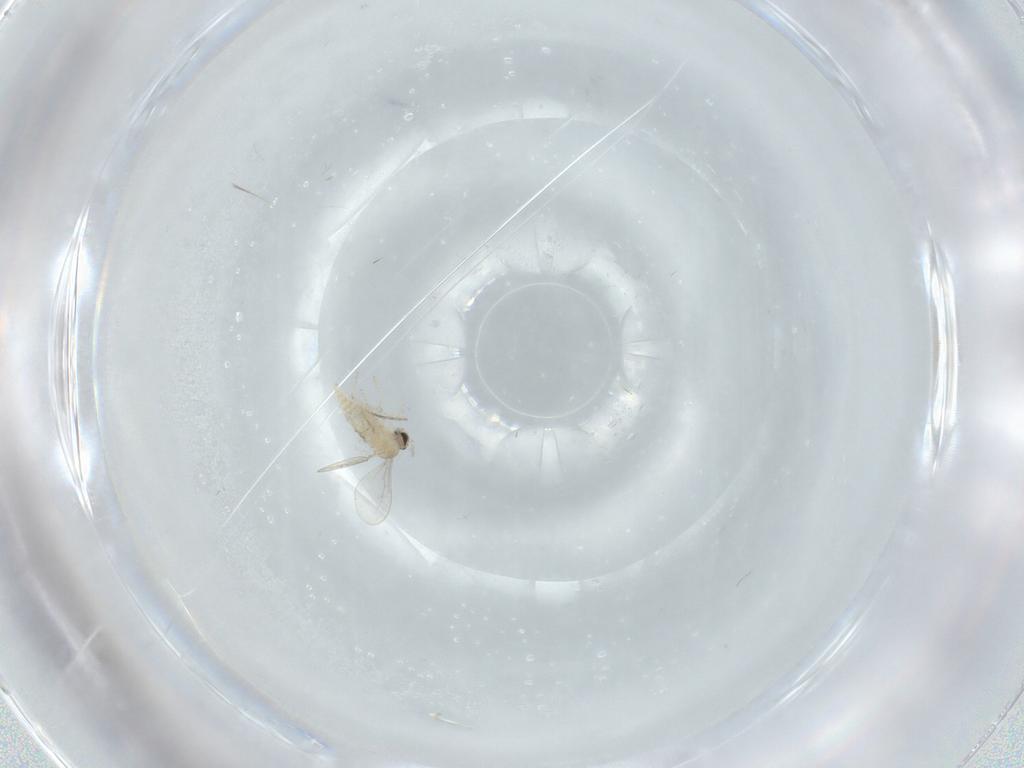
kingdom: Animalia
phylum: Arthropoda
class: Insecta
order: Diptera
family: Cecidomyiidae
